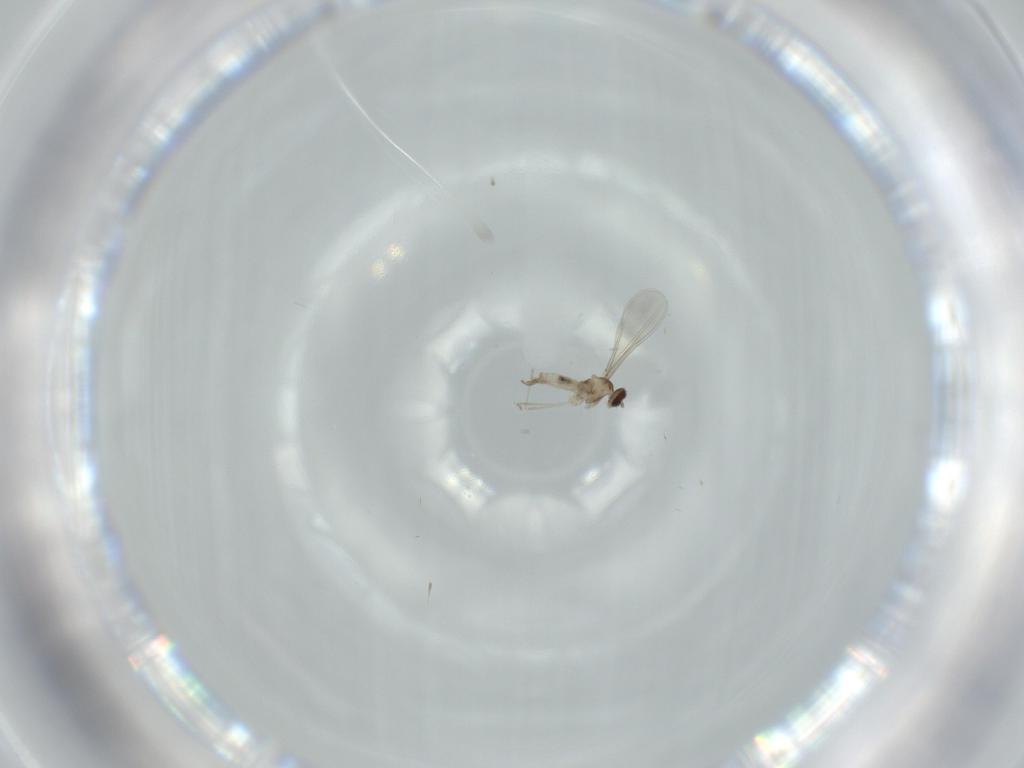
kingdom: Animalia
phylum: Arthropoda
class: Insecta
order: Diptera
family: Cecidomyiidae
